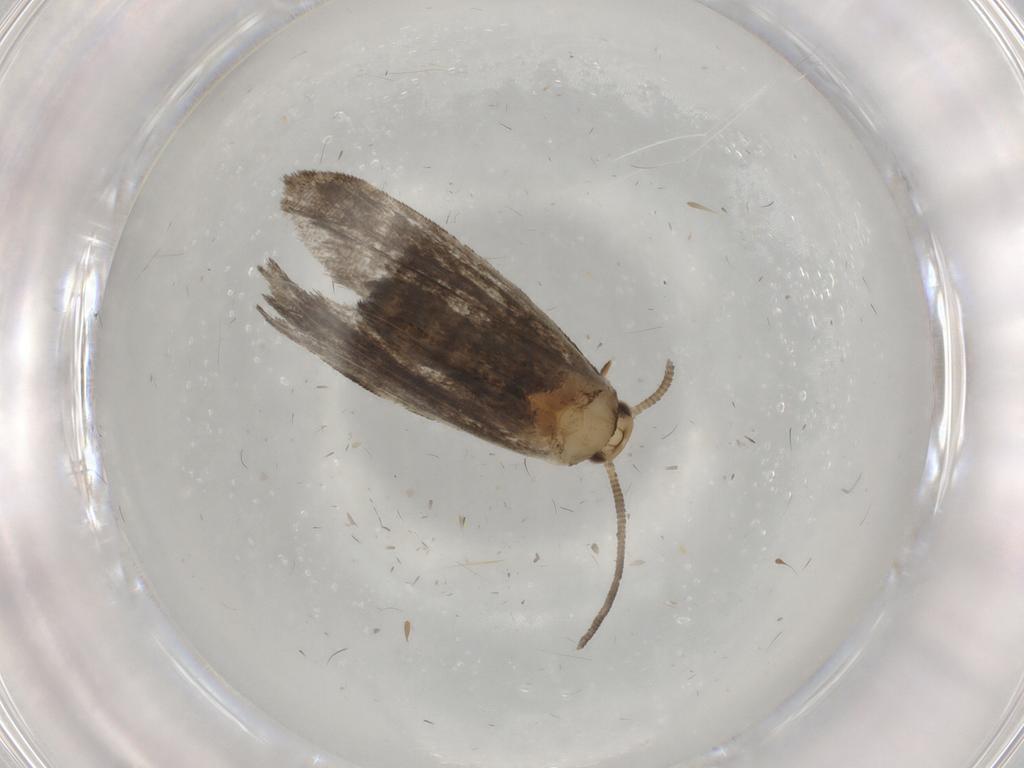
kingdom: Animalia
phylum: Arthropoda
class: Insecta
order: Lepidoptera
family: Dryadaulidae
